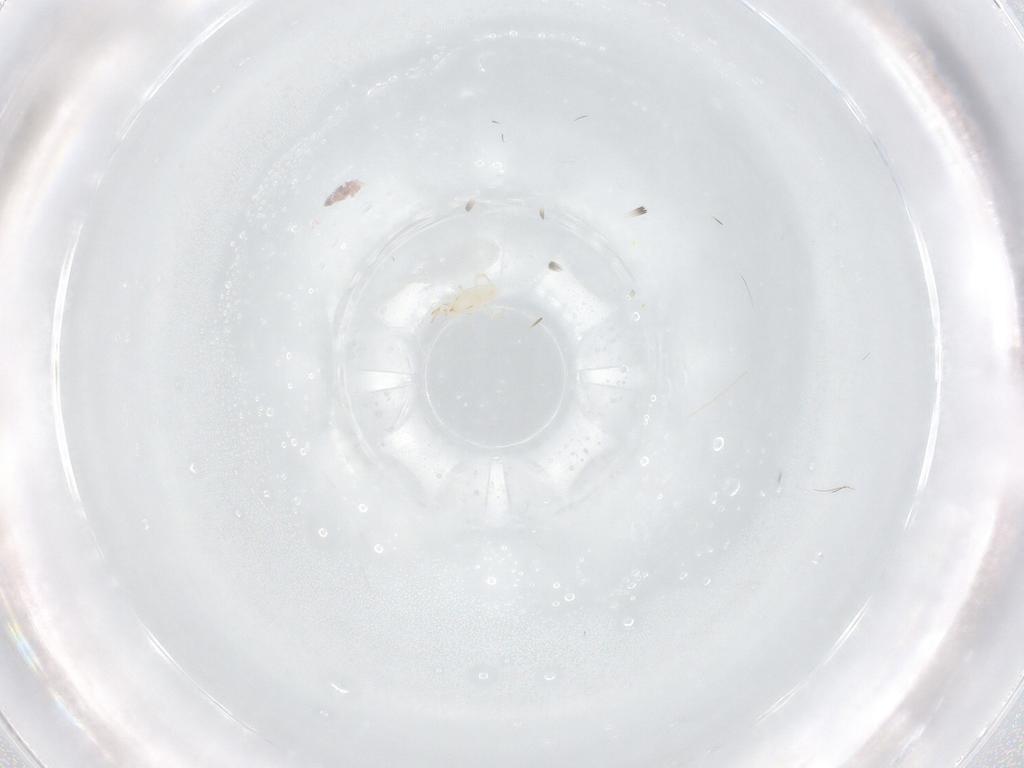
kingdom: Animalia
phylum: Arthropoda
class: Arachnida
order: Mesostigmata
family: Phytoseiidae
